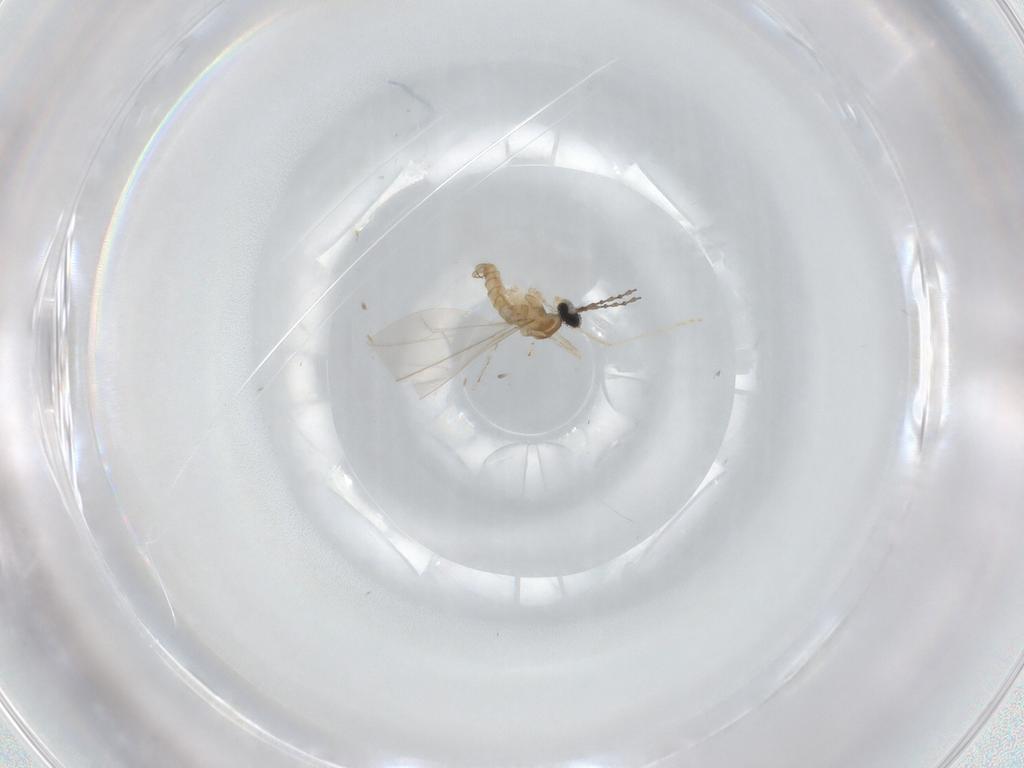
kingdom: Animalia
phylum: Arthropoda
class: Insecta
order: Diptera
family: Cecidomyiidae
